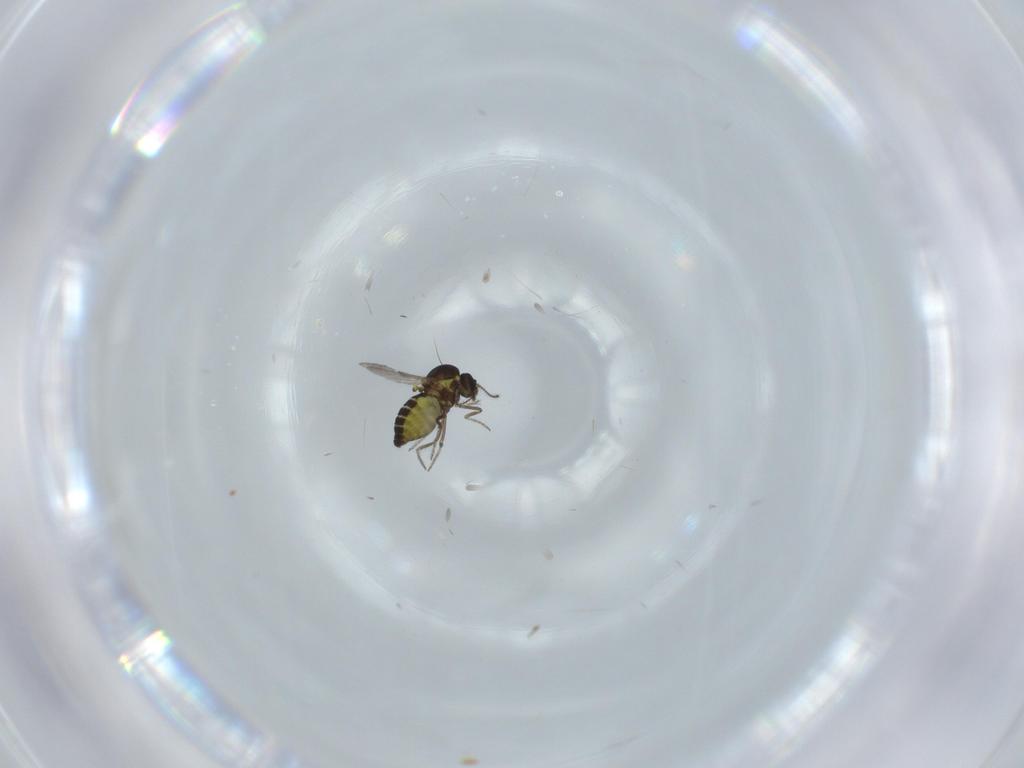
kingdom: Animalia
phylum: Arthropoda
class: Insecta
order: Diptera
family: Milichiidae
